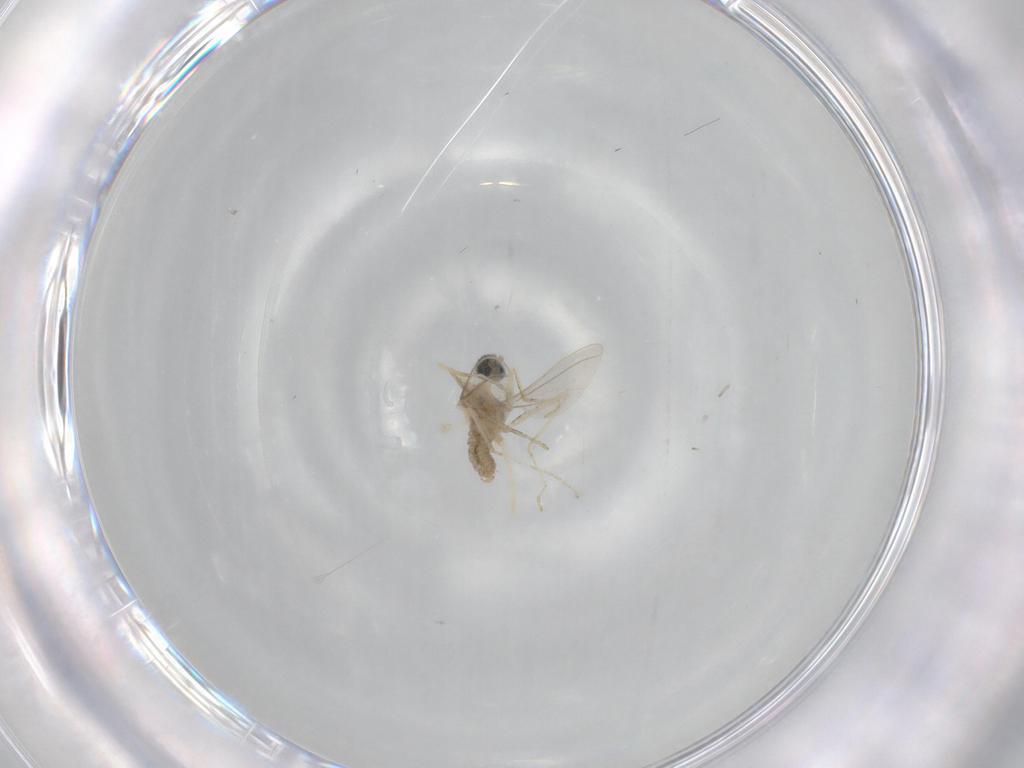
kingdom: Animalia
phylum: Arthropoda
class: Insecta
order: Diptera
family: Cecidomyiidae
